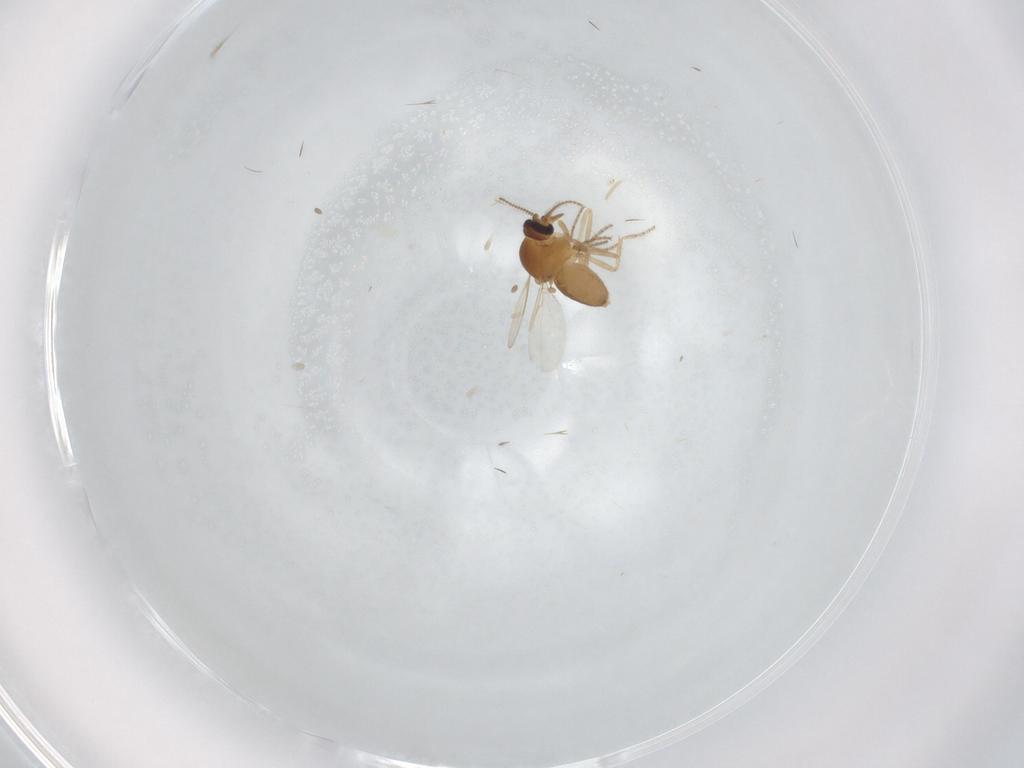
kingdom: Animalia
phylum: Arthropoda
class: Insecta
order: Diptera
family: Ceratopogonidae
